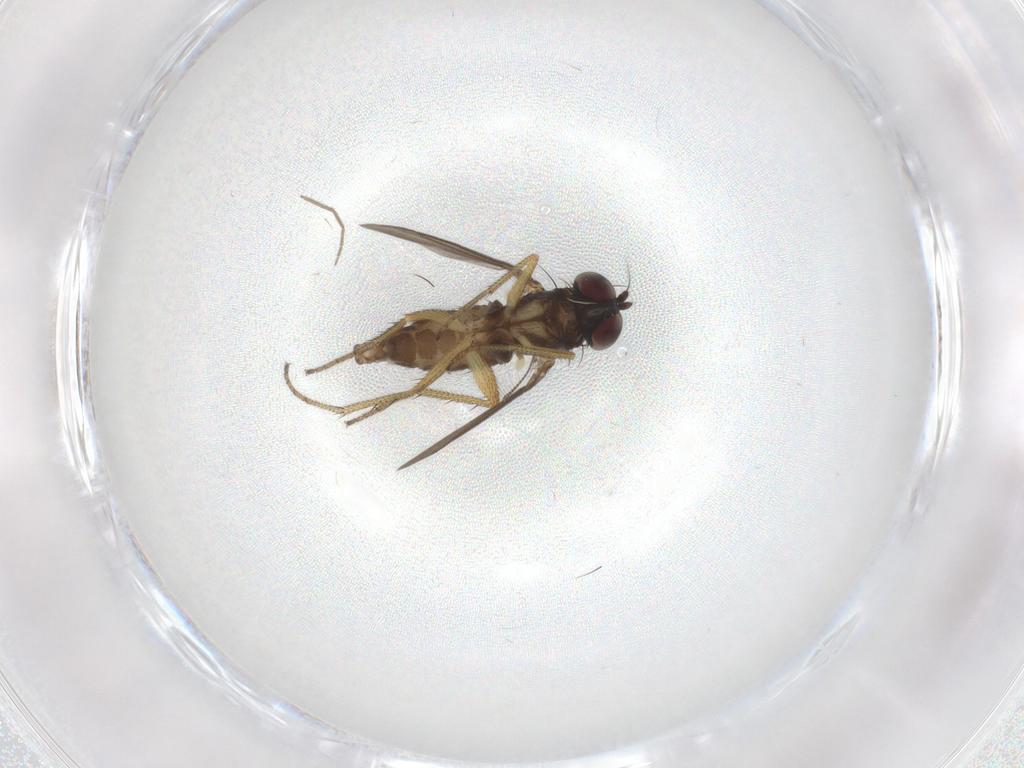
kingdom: Animalia
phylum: Arthropoda
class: Insecta
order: Diptera
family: Dolichopodidae
